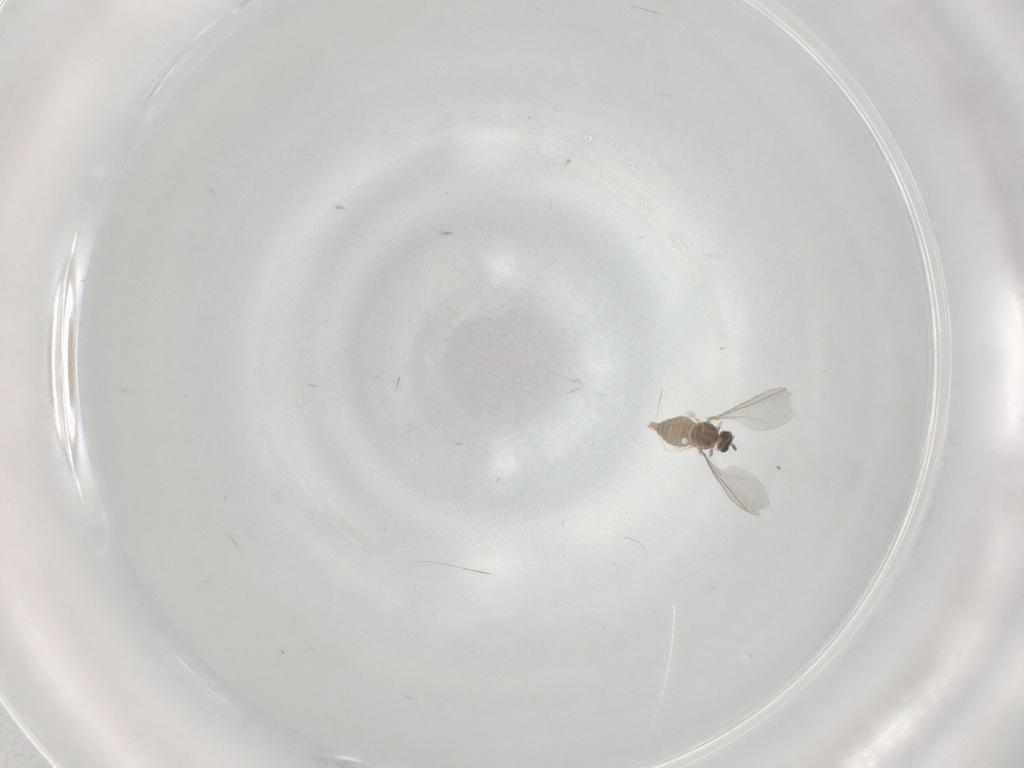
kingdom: Animalia
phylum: Arthropoda
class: Insecta
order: Diptera
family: Cecidomyiidae
